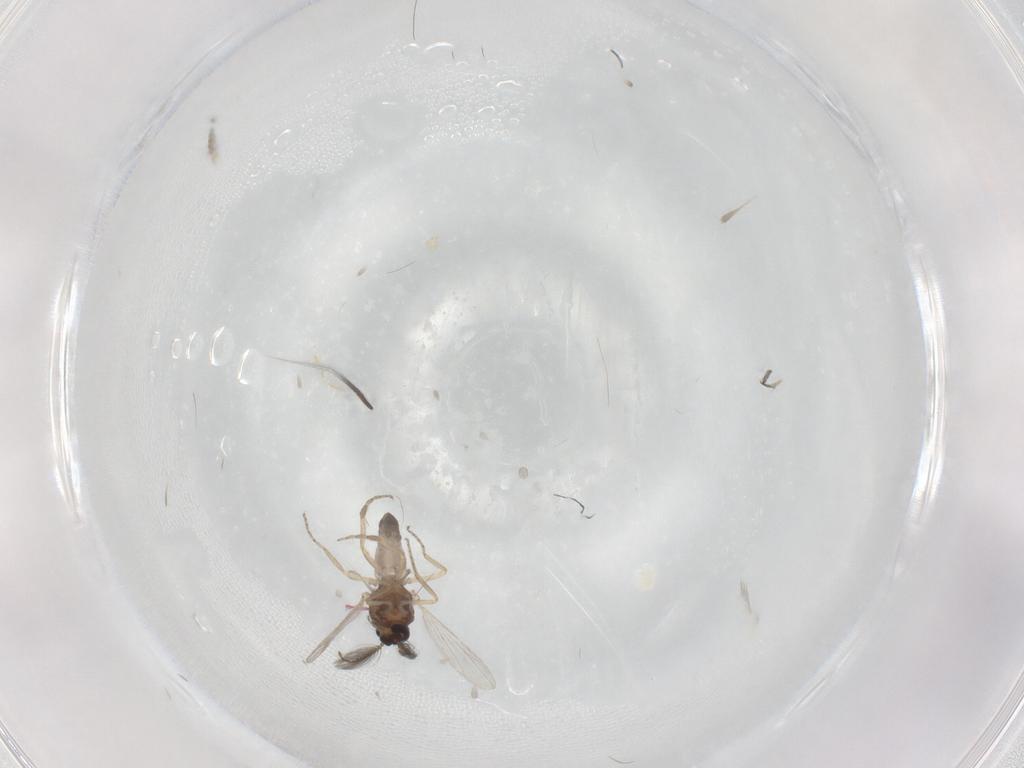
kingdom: Animalia
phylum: Arthropoda
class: Insecta
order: Diptera
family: Ceratopogonidae
